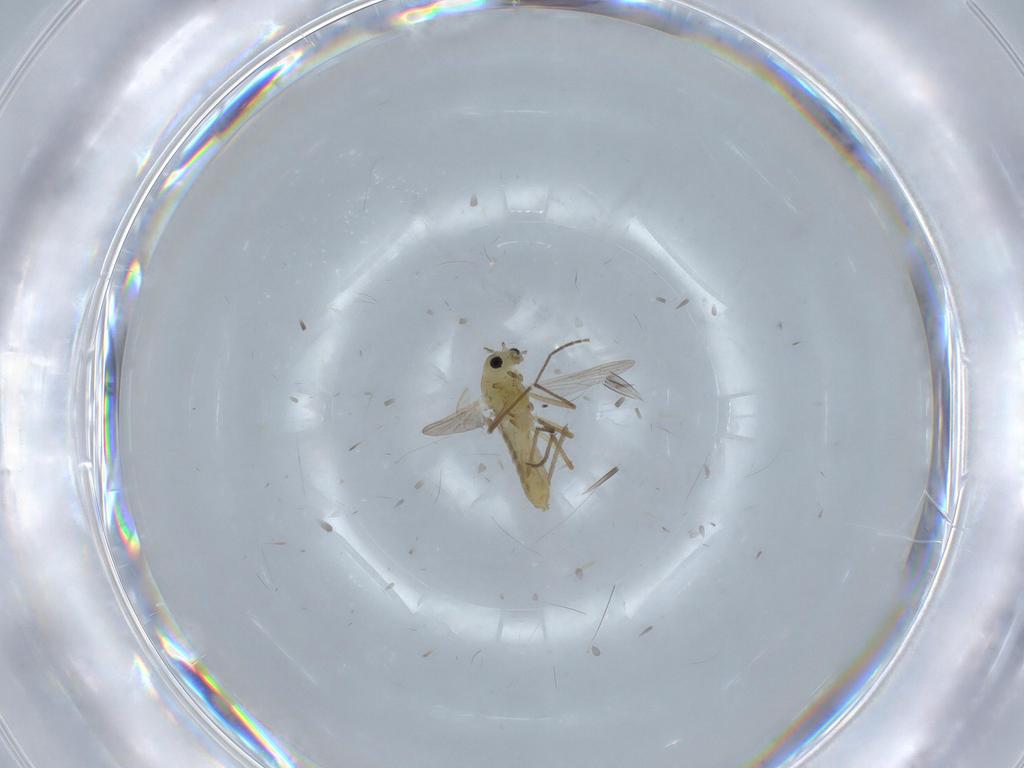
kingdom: Animalia
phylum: Arthropoda
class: Insecta
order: Diptera
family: Chironomidae
